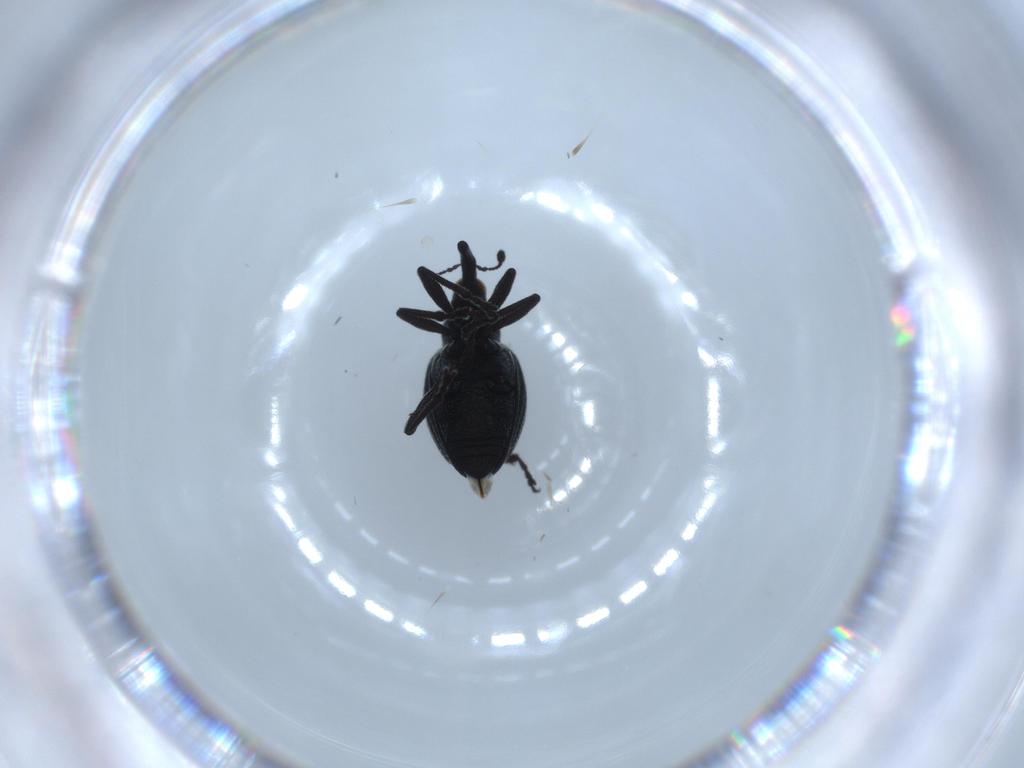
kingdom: Animalia
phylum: Arthropoda
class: Insecta
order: Coleoptera
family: Brentidae
